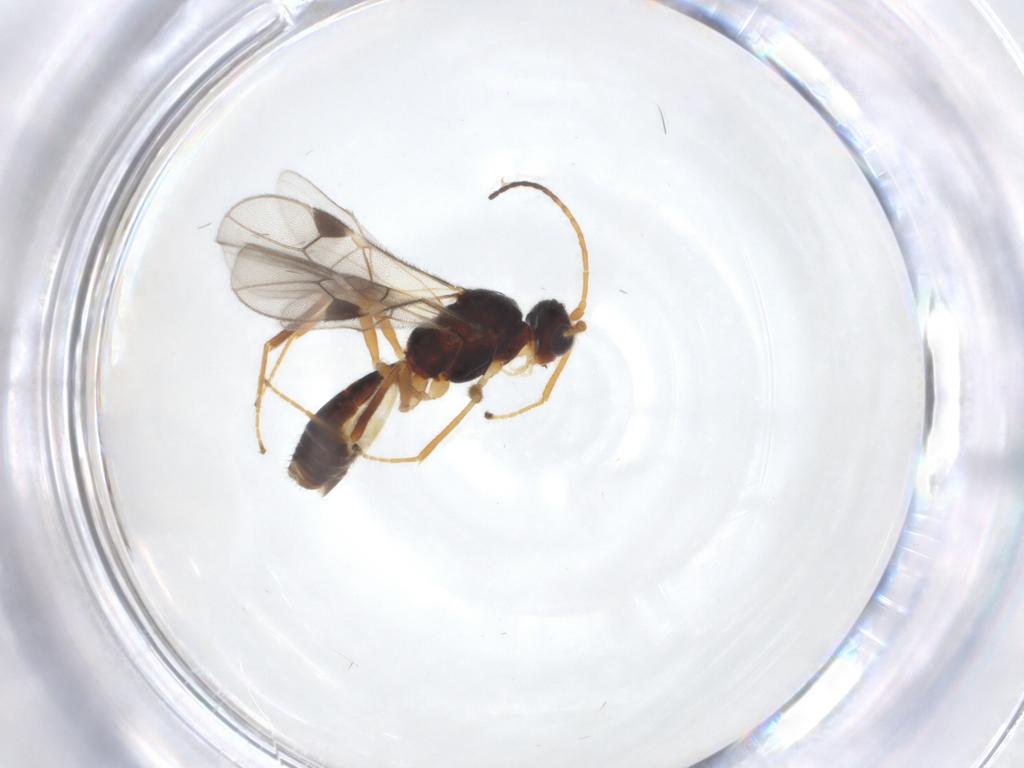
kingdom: Animalia
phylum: Arthropoda
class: Insecta
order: Hymenoptera
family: Braconidae
